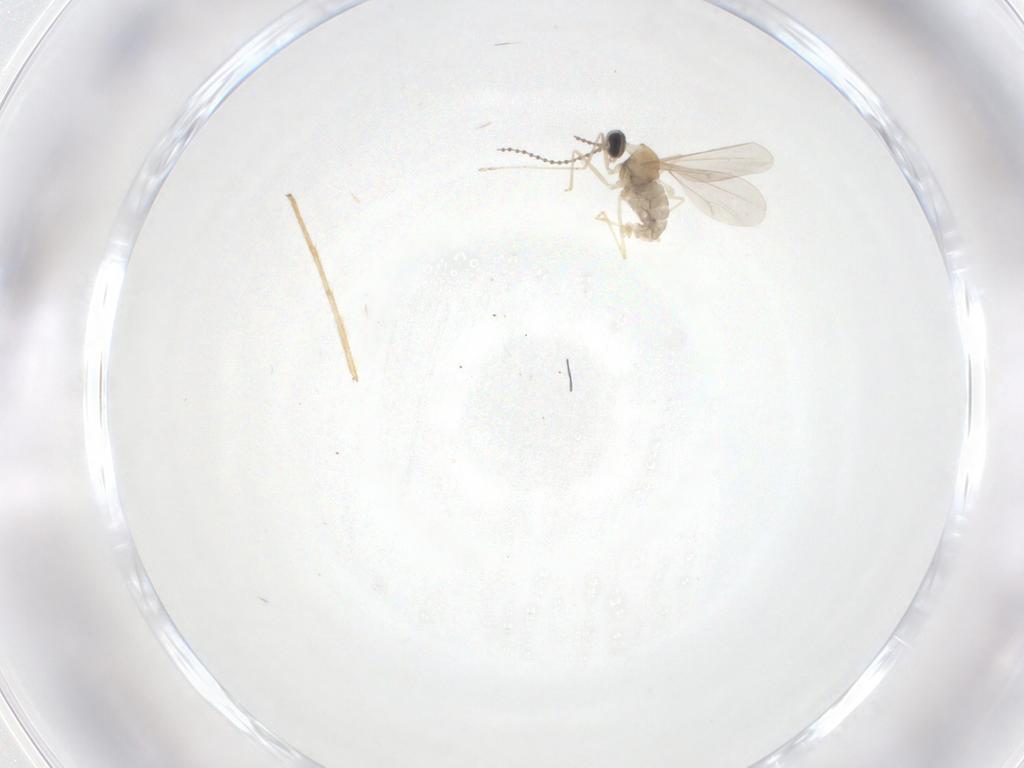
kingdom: Animalia
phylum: Arthropoda
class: Insecta
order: Diptera
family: Cecidomyiidae
